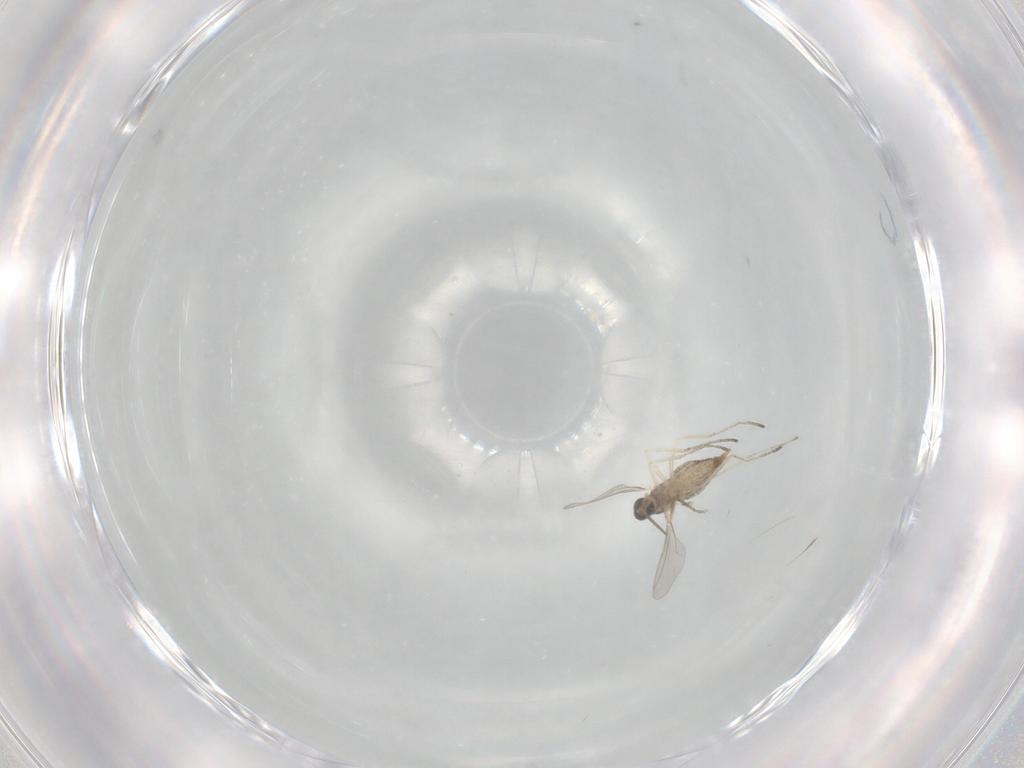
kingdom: Animalia
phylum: Arthropoda
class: Insecta
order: Diptera
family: Cecidomyiidae
